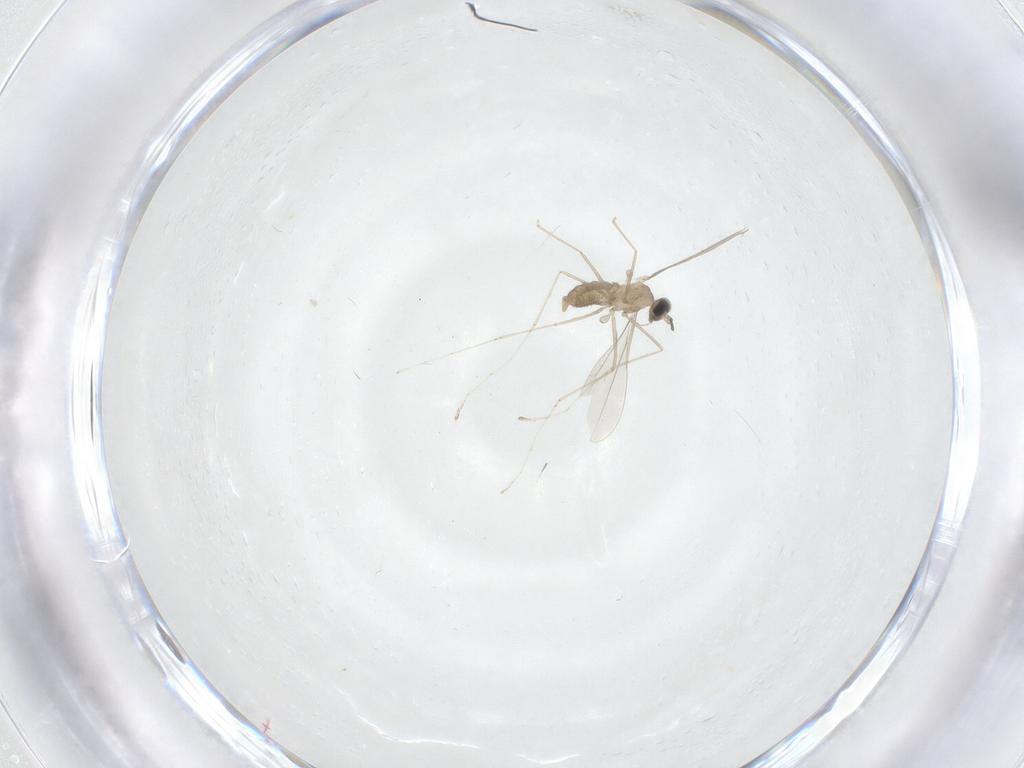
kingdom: Animalia
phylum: Arthropoda
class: Insecta
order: Diptera
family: Cecidomyiidae
